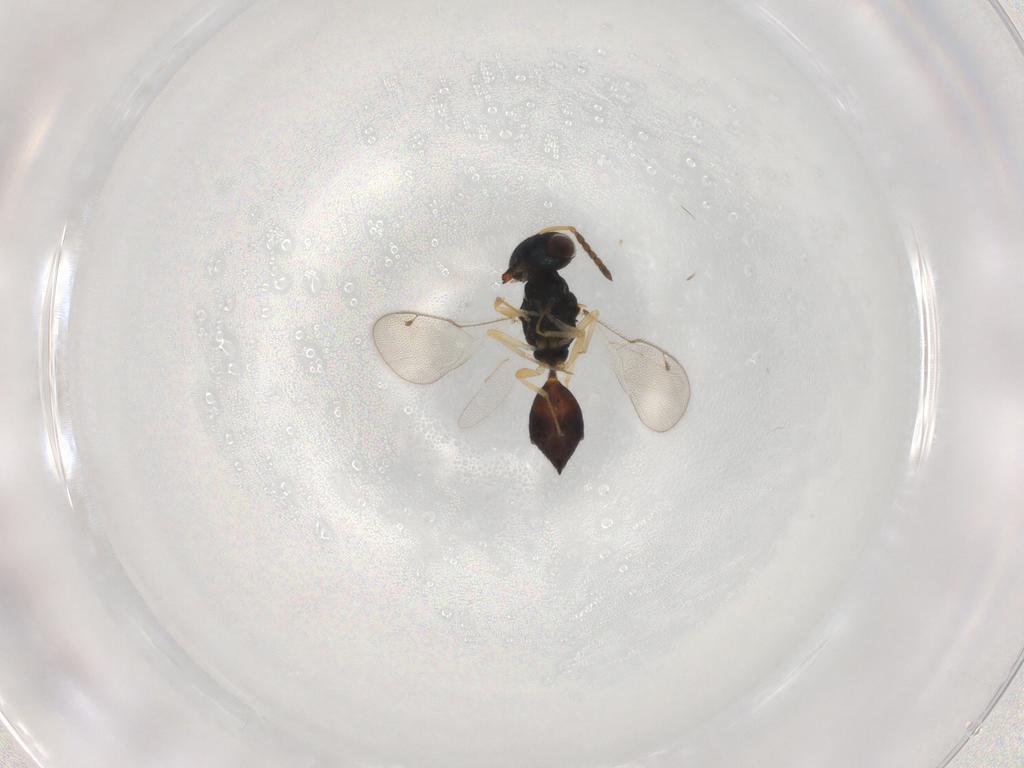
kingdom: Animalia
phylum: Arthropoda
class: Insecta
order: Hymenoptera
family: Pteromalidae
